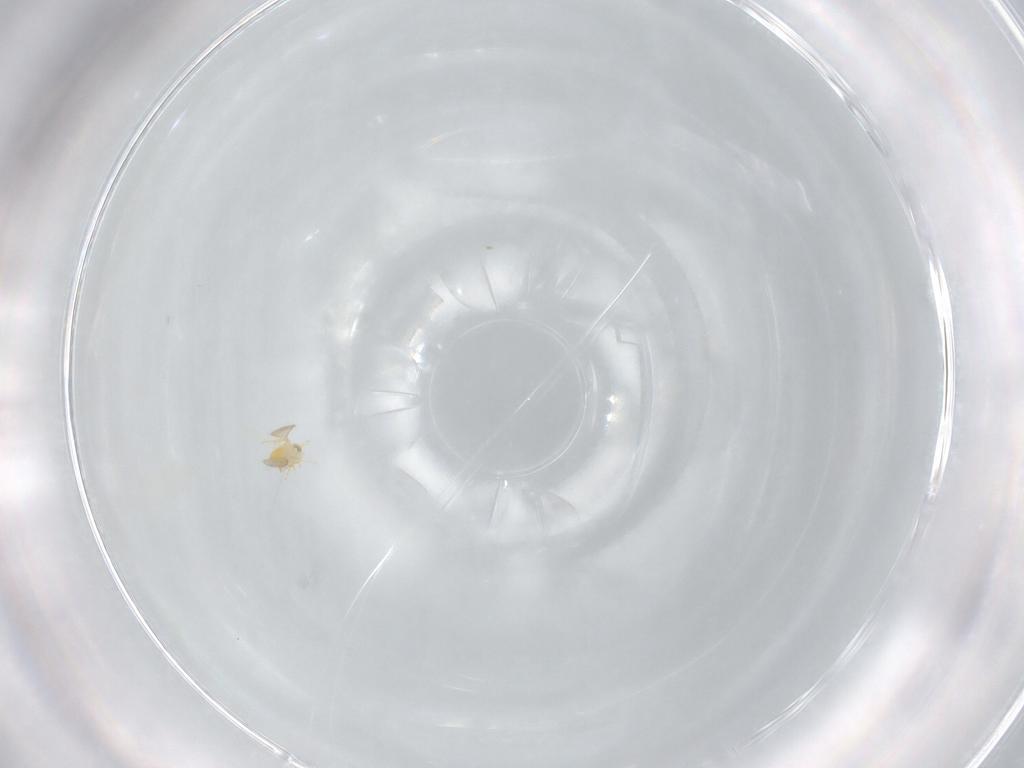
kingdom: Animalia
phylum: Arthropoda
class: Insecta
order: Hymenoptera
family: Aphelinidae
